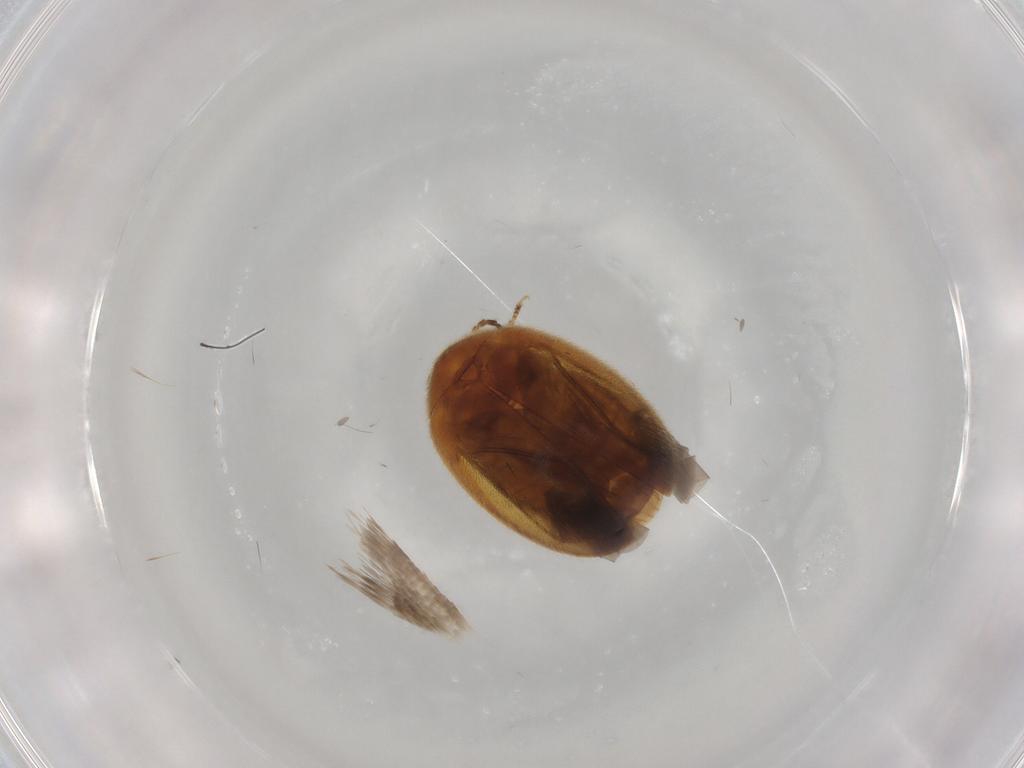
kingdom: Animalia
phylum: Arthropoda
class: Insecta
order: Coleoptera
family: Scirtidae
